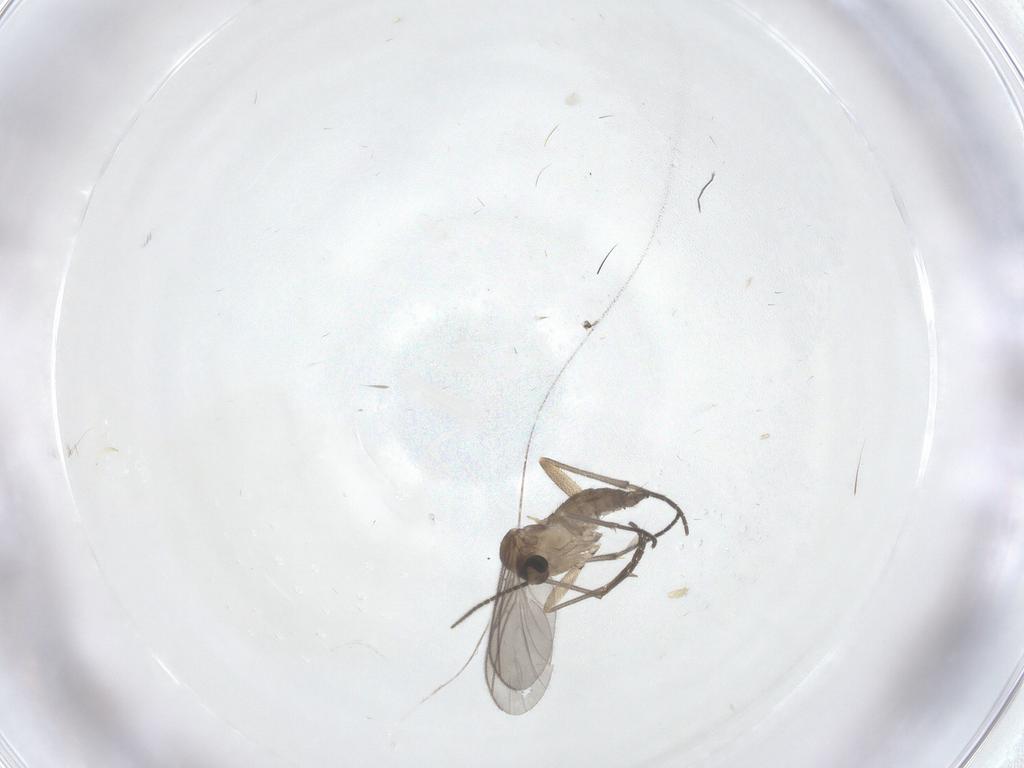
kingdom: Animalia
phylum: Arthropoda
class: Insecta
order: Diptera
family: Sciaridae
